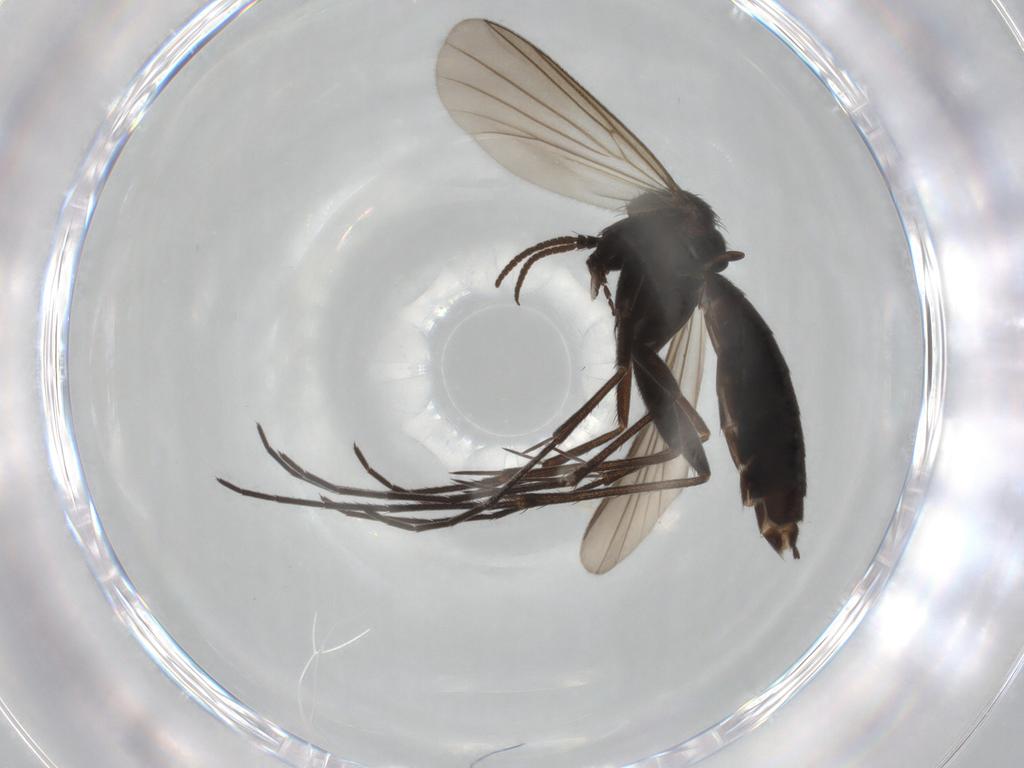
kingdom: Animalia
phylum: Arthropoda
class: Insecta
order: Diptera
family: Mycetophilidae
